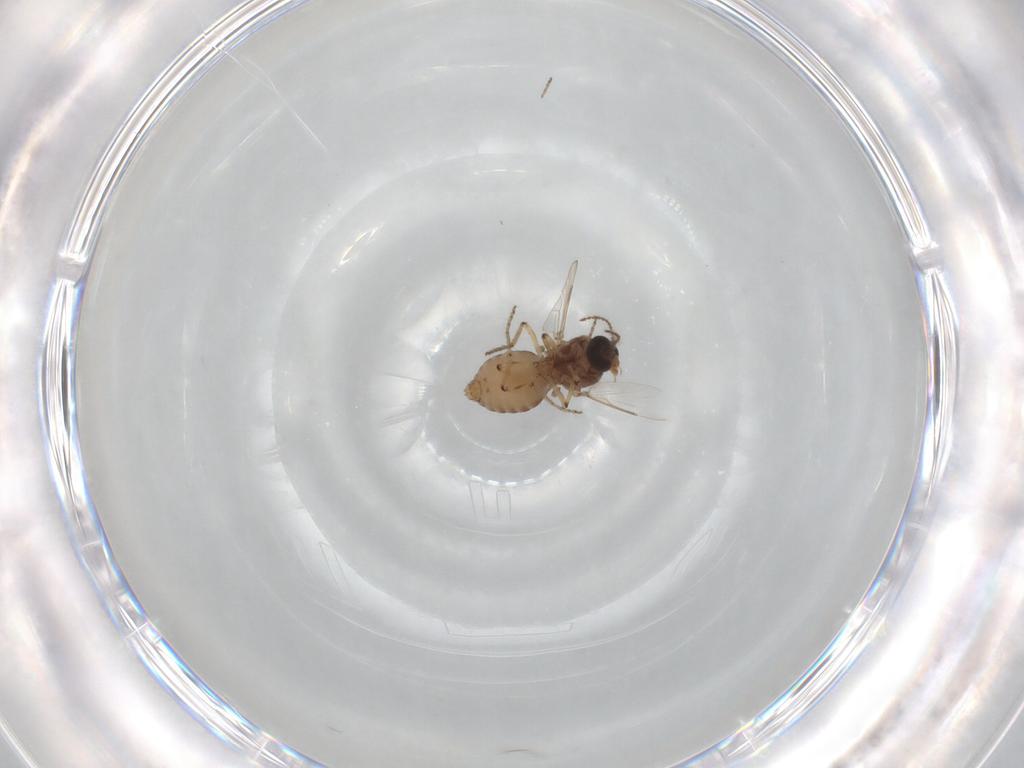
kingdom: Animalia
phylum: Arthropoda
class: Insecta
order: Diptera
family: Ceratopogonidae
